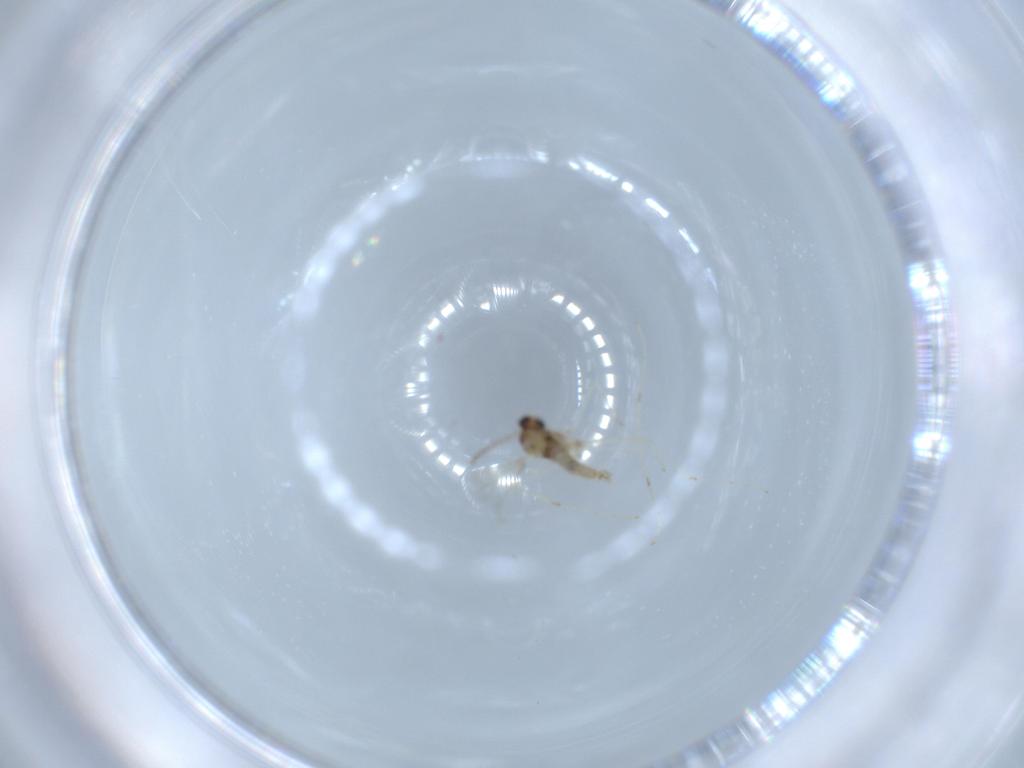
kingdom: Animalia
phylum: Arthropoda
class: Insecta
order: Diptera
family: Cecidomyiidae
